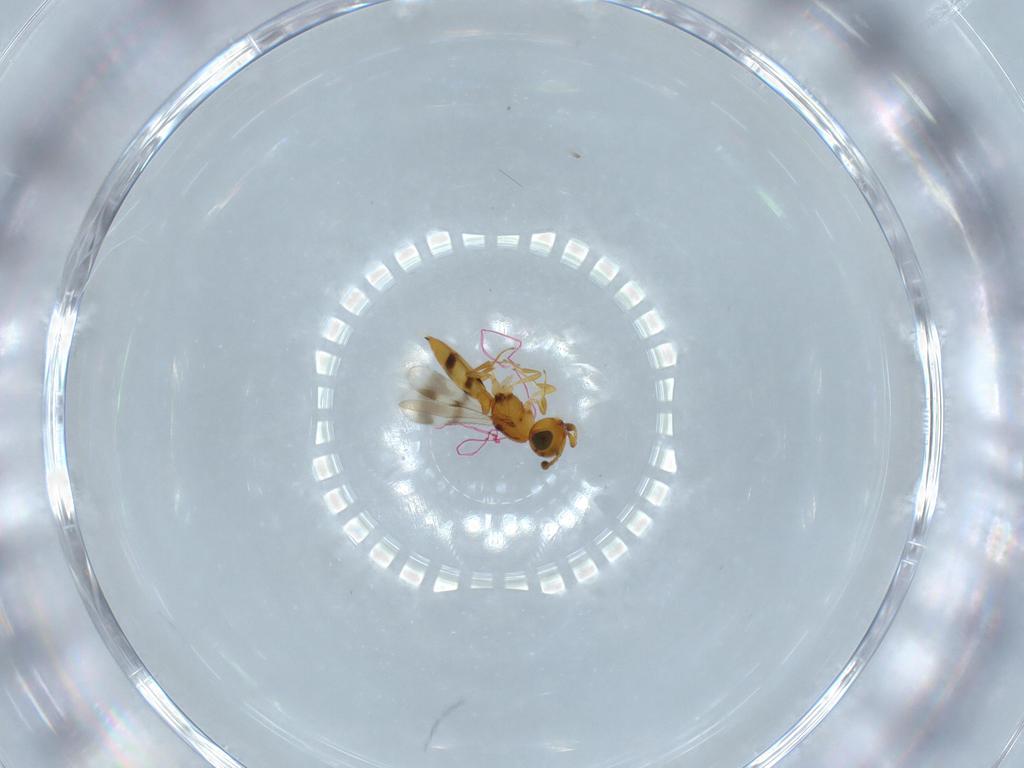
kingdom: Animalia
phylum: Arthropoda
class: Insecta
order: Hymenoptera
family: Scelionidae
